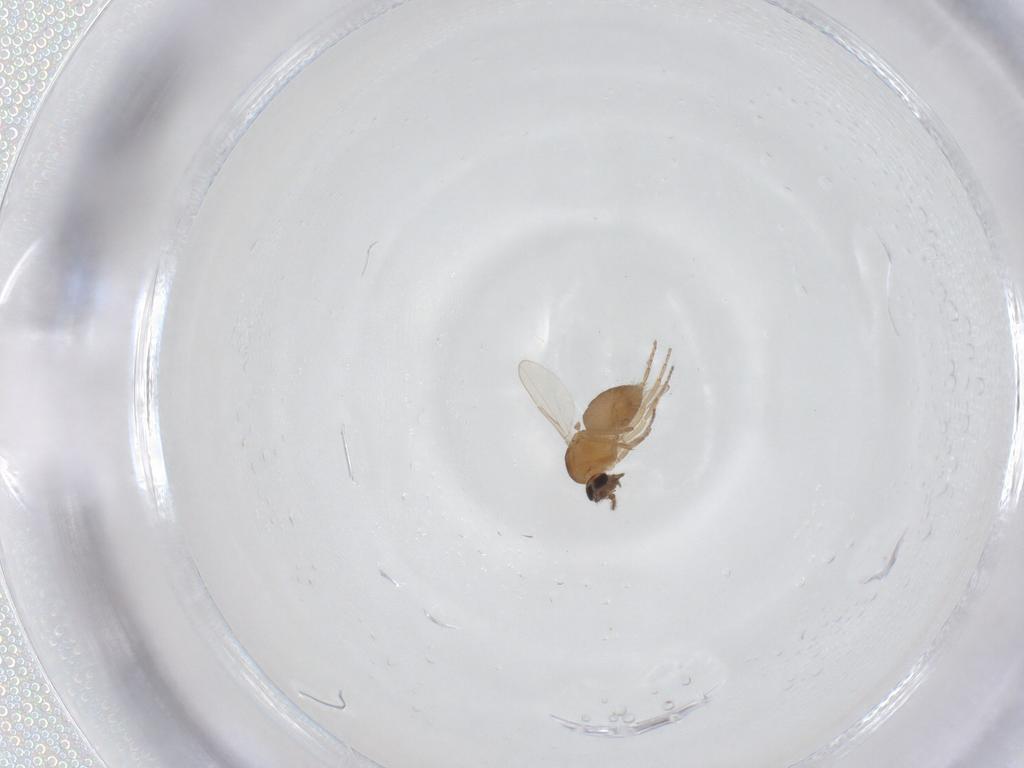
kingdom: Animalia
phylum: Arthropoda
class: Insecta
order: Diptera
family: Ceratopogonidae
